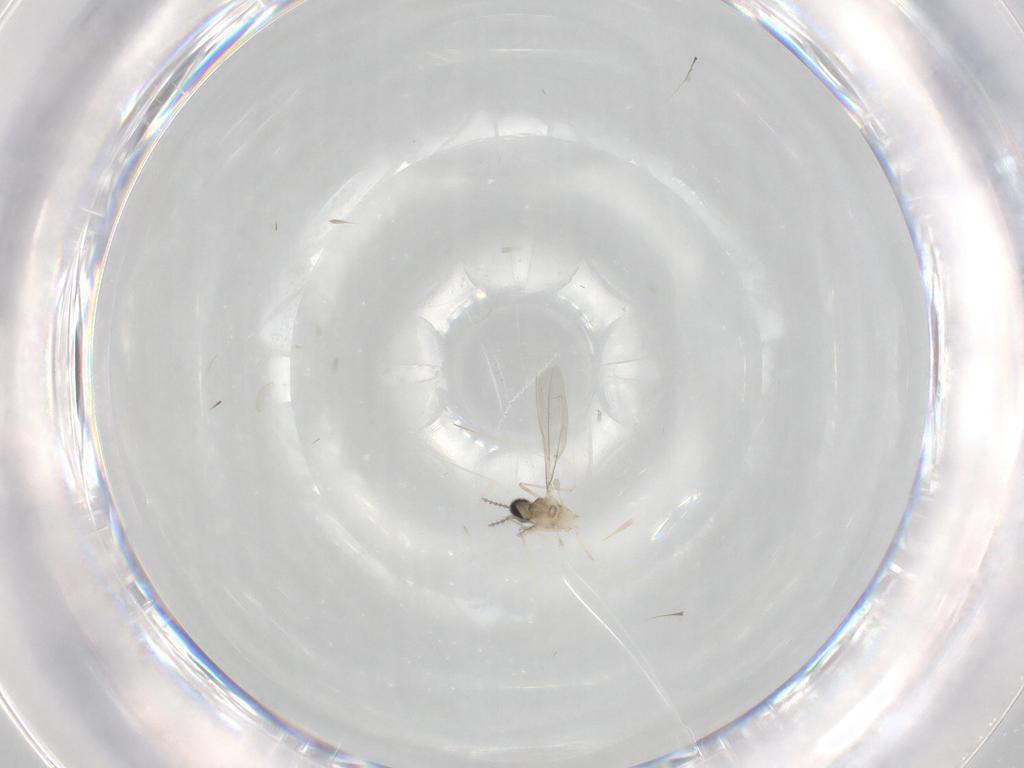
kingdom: Animalia
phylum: Arthropoda
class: Insecta
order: Diptera
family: Cecidomyiidae
